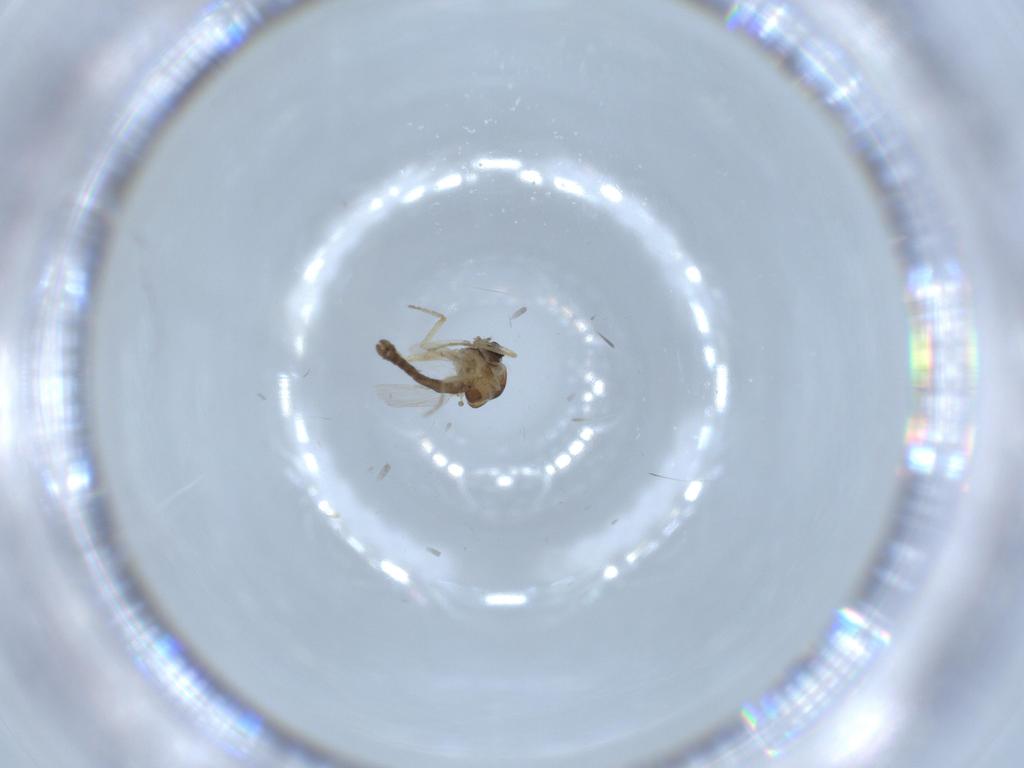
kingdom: Animalia
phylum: Arthropoda
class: Insecta
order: Diptera
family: Ceratopogonidae
